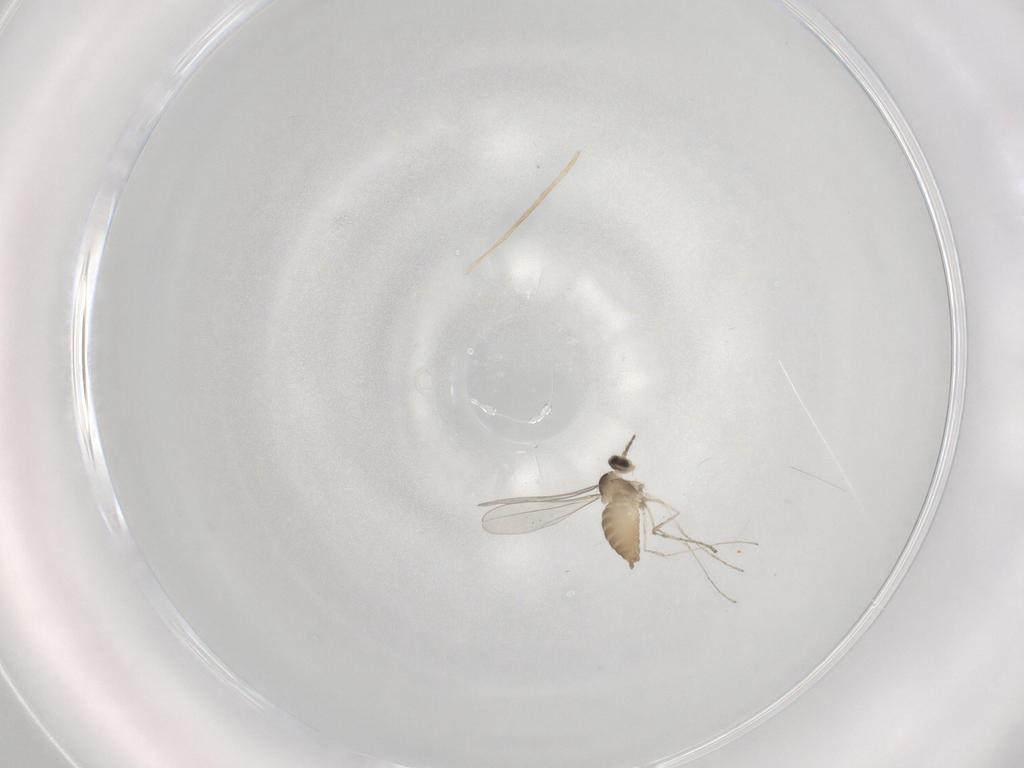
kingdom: Animalia
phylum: Arthropoda
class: Insecta
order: Diptera
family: Cecidomyiidae
